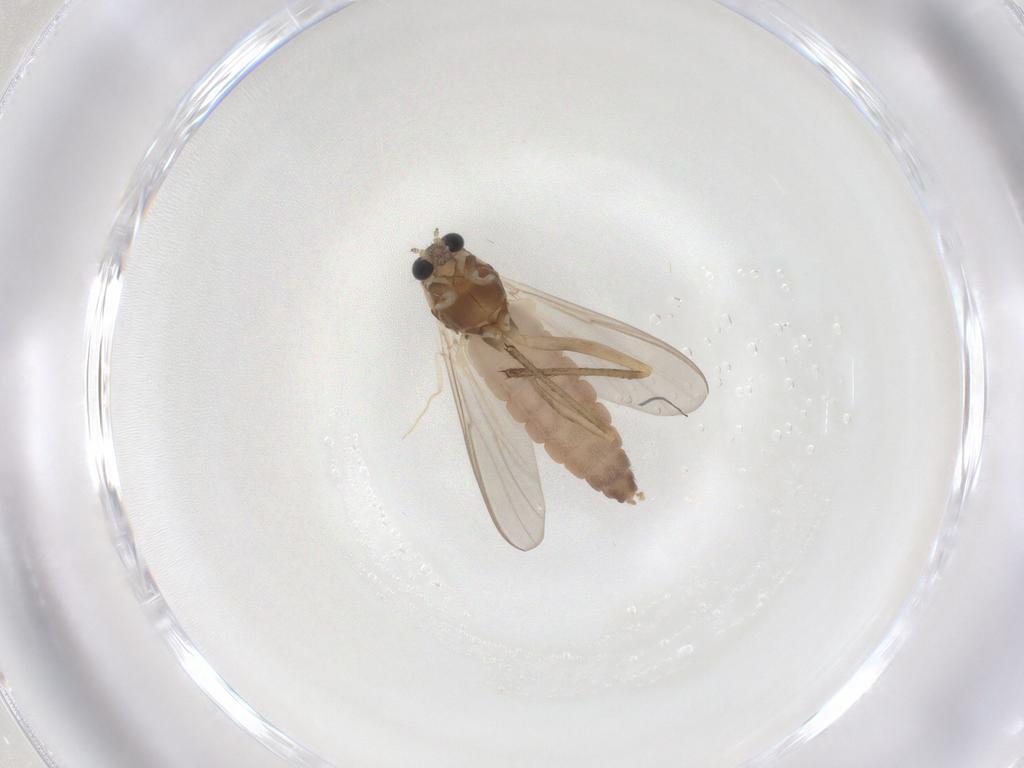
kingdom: Animalia
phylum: Arthropoda
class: Insecta
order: Diptera
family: Chironomidae
